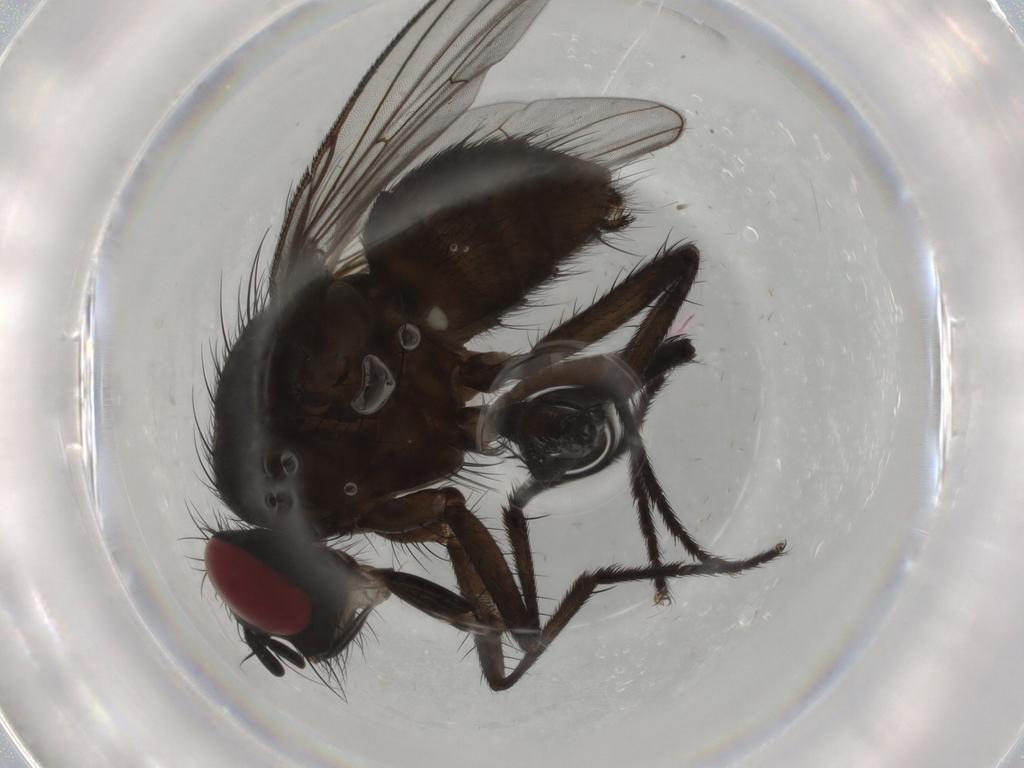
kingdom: Animalia
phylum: Arthropoda
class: Insecta
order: Diptera
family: Muscidae
